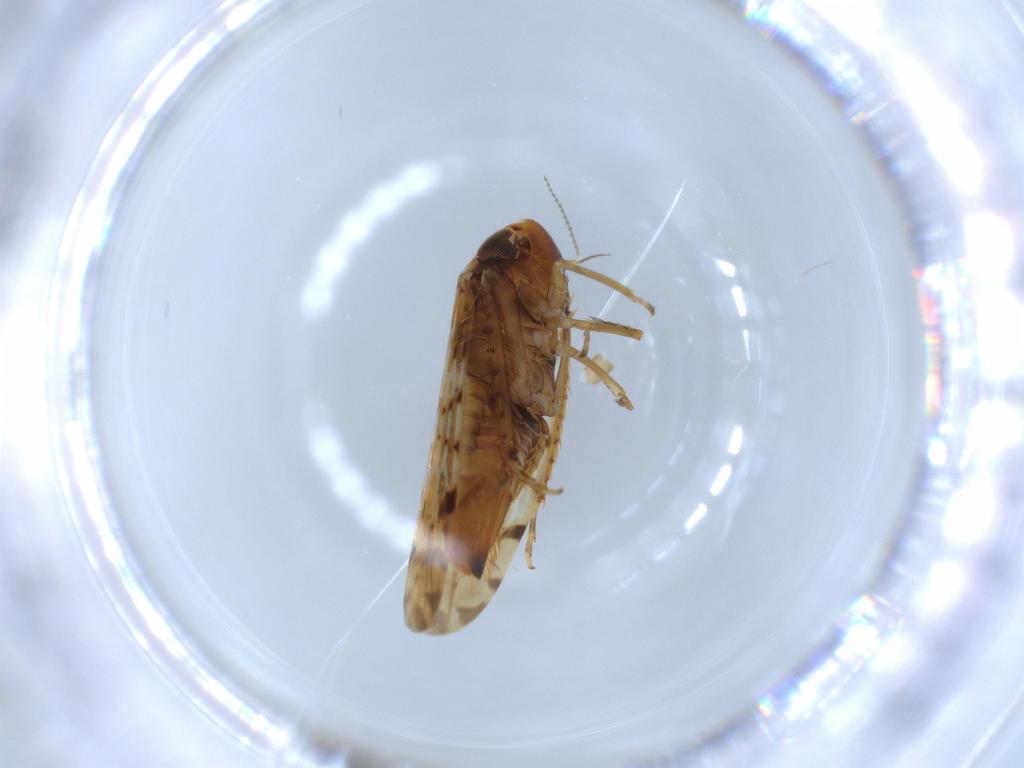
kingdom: Animalia
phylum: Arthropoda
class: Insecta
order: Hemiptera
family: Cicadellidae
